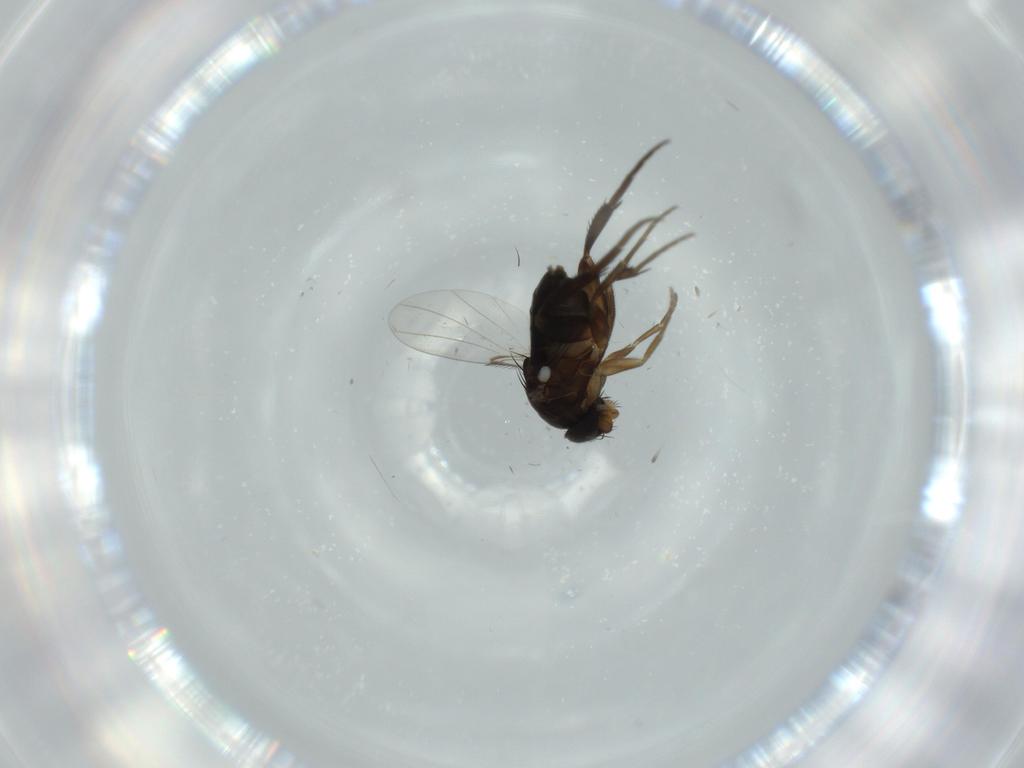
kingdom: Animalia
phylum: Arthropoda
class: Insecta
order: Diptera
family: Phoridae
